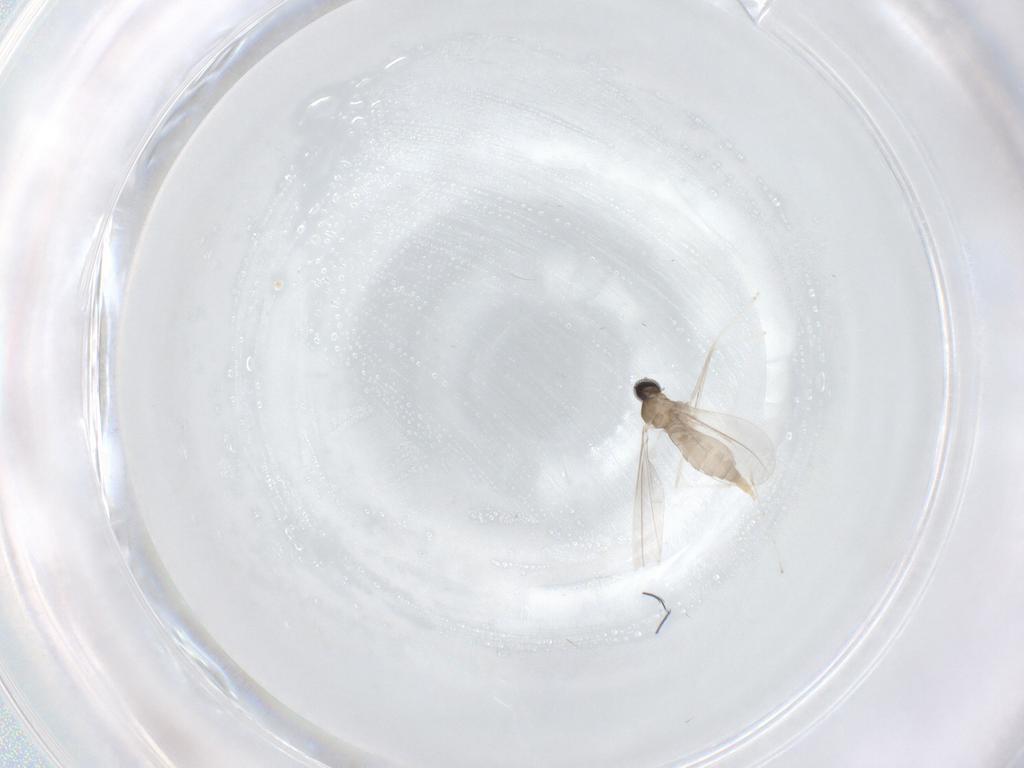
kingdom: Animalia
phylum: Arthropoda
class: Insecta
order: Diptera
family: Cecidomyiidae
